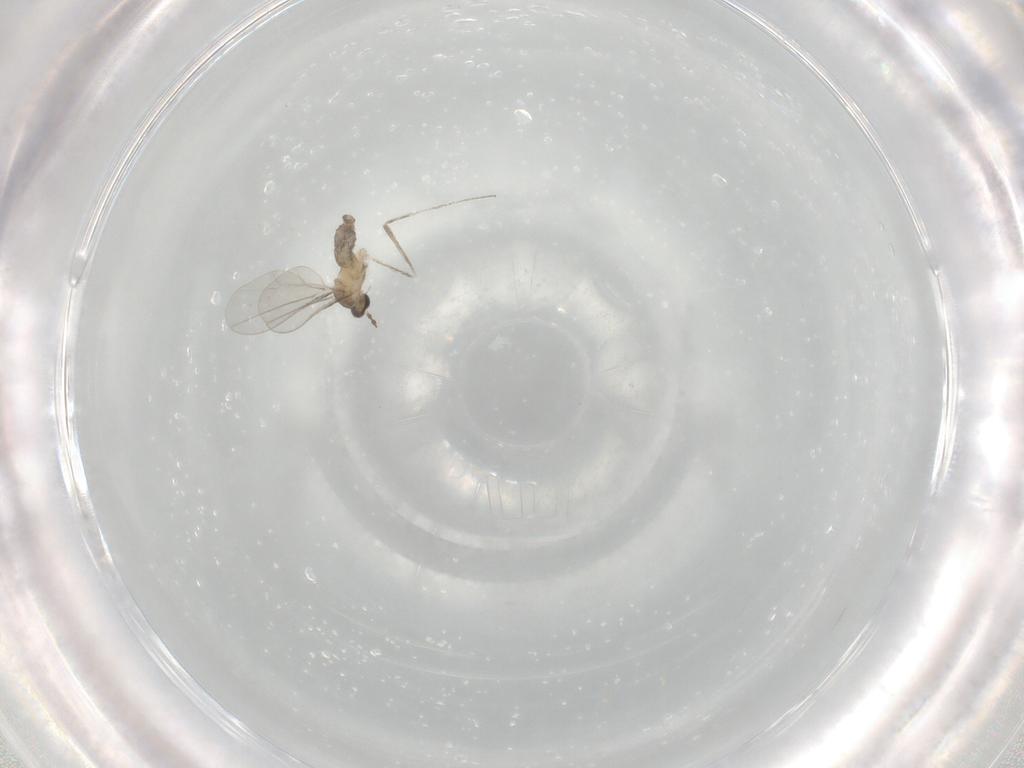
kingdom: Animalia
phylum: Arthropoda
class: Insecta
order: Diptera
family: Cecidomyiidae
